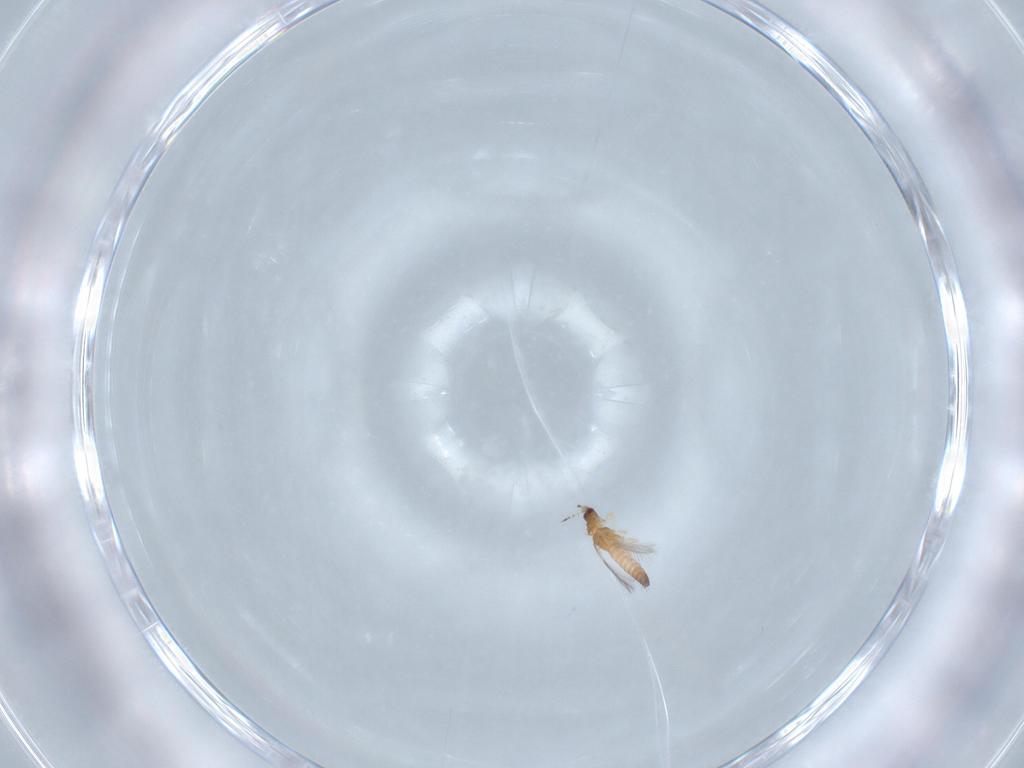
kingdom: Animalia
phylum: Arthropoda
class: Insecta
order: Thysanoptera
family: Thripidae
